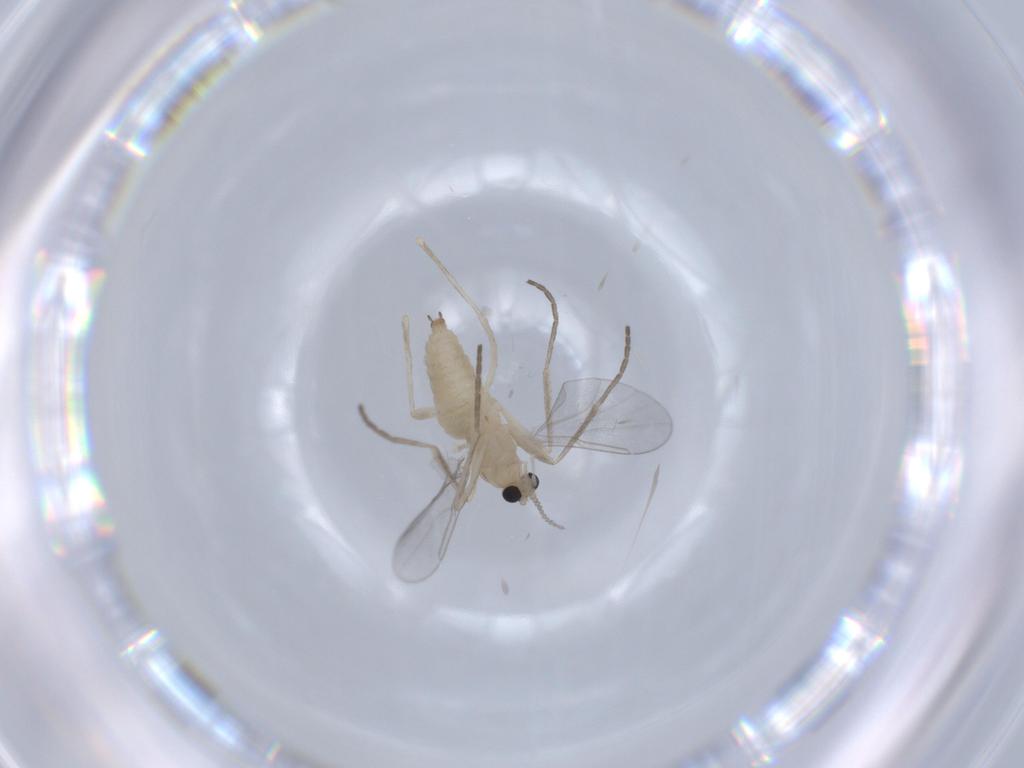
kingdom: Animalia
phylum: Arthropoda
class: Insecta
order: Diptera
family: Cecidomyiidae
